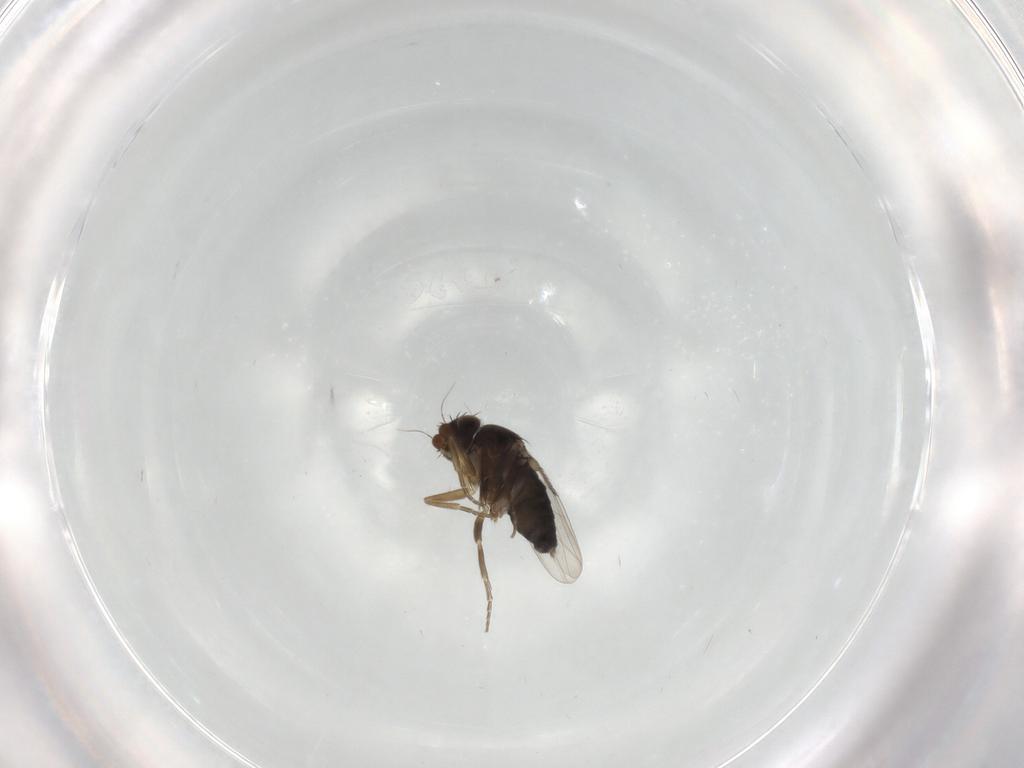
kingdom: Animalia
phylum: Arthropoda
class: Insecta
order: Diptera
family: Phoridae
